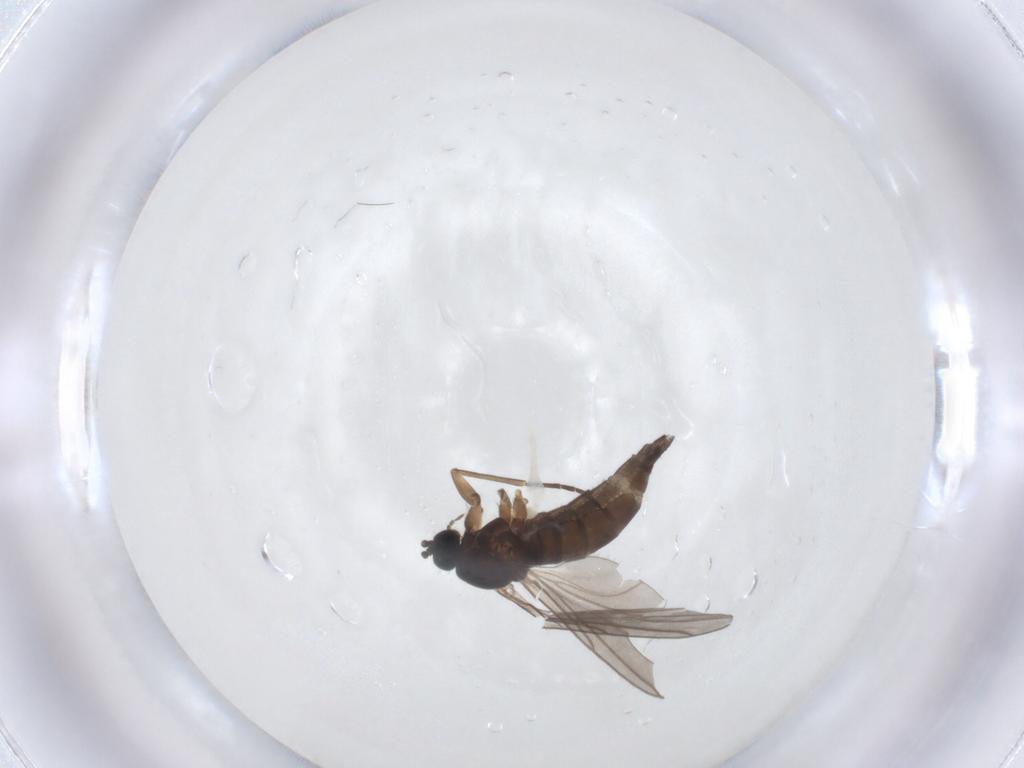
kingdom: Animalia
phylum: Arthropoda
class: Insecta
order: Diptera
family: Sciaridae
